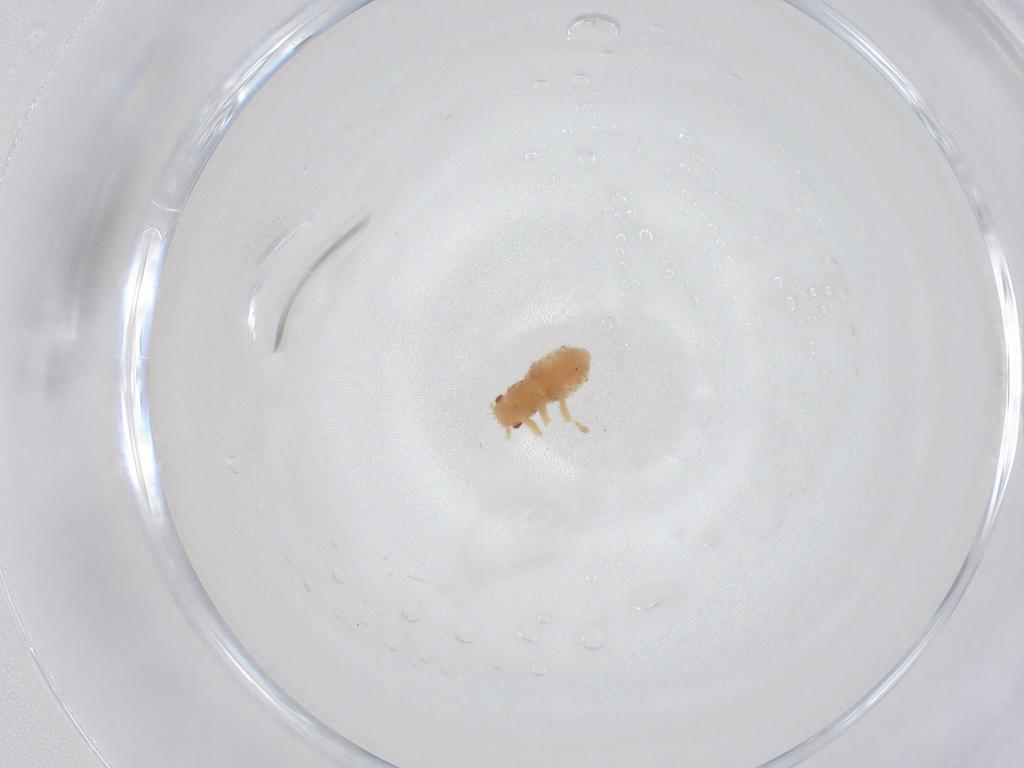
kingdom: Animalia
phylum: Arthropoda
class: Insecta
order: Hemiptera
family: Aphididae
